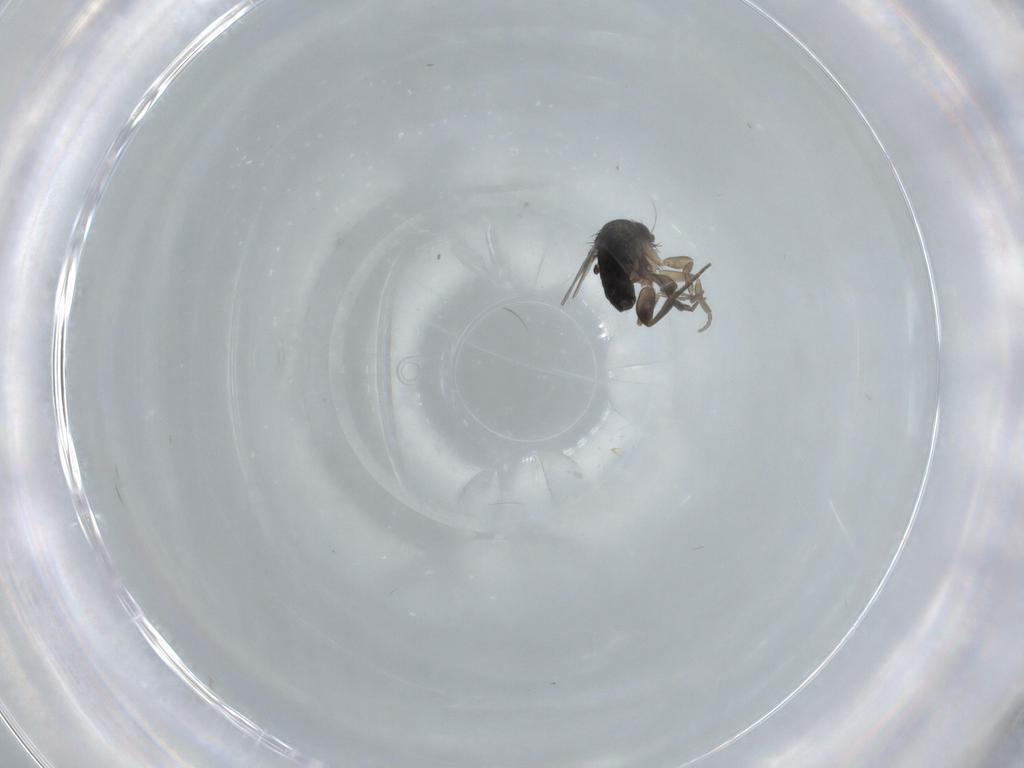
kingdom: Animalia
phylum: Arthropoda
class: Insecta
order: Diptera
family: Phoridae
